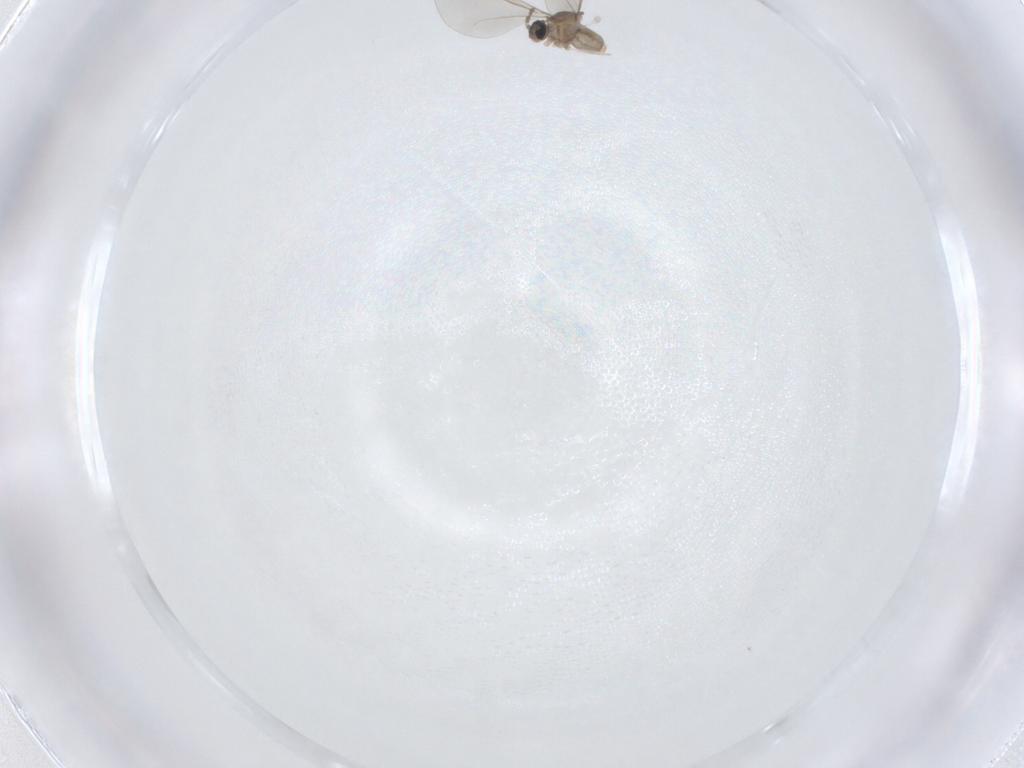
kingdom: Animalia
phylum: Arthropoda
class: Insecta
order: Diptera
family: Cecidomyiidae
